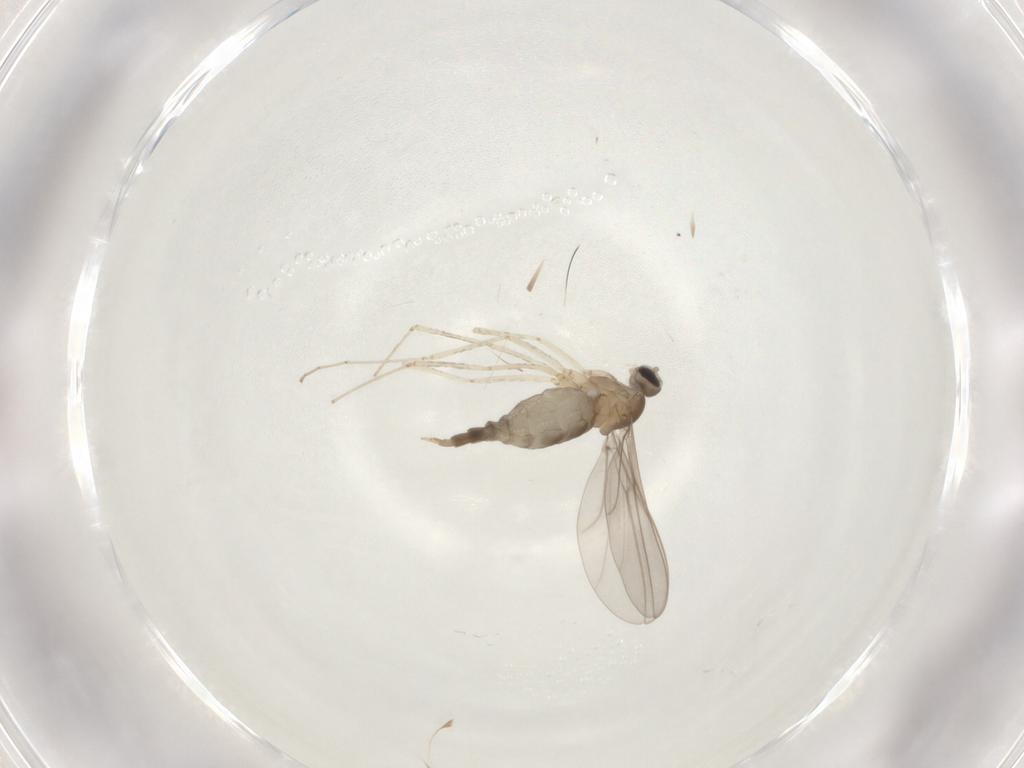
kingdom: Animalia
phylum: Arthropoda
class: Insecta
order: Diptera
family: Cecidomyiidae
